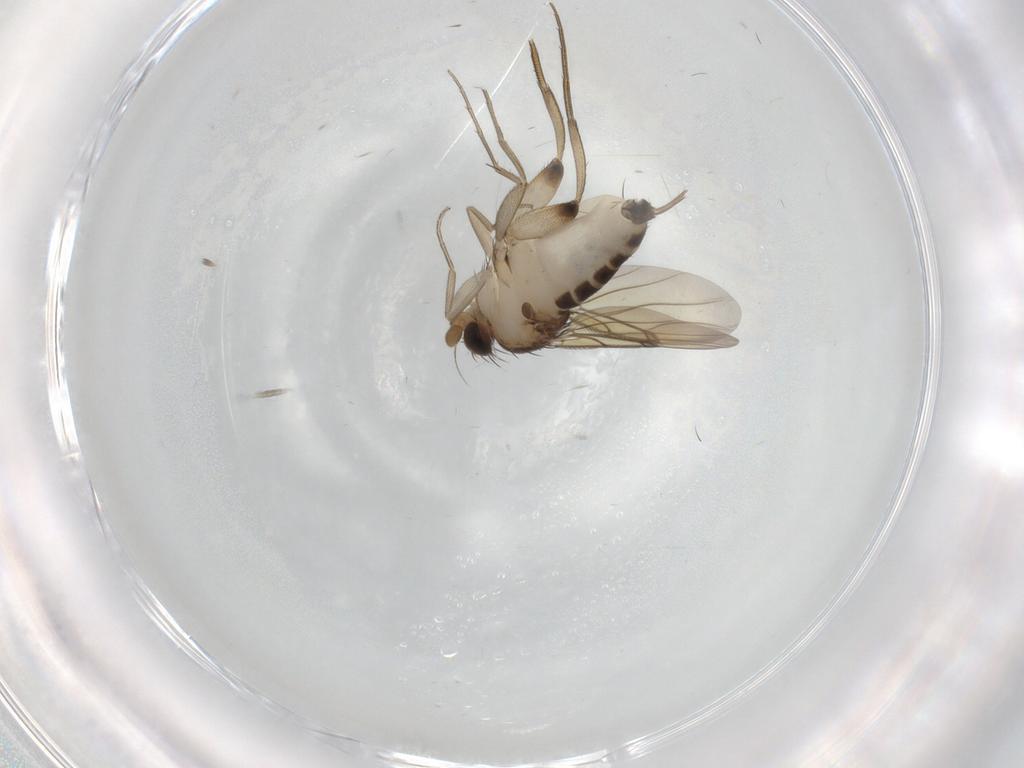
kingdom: Animalia
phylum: Arthropoda
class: Insecta
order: Diptera
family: Phoridae
